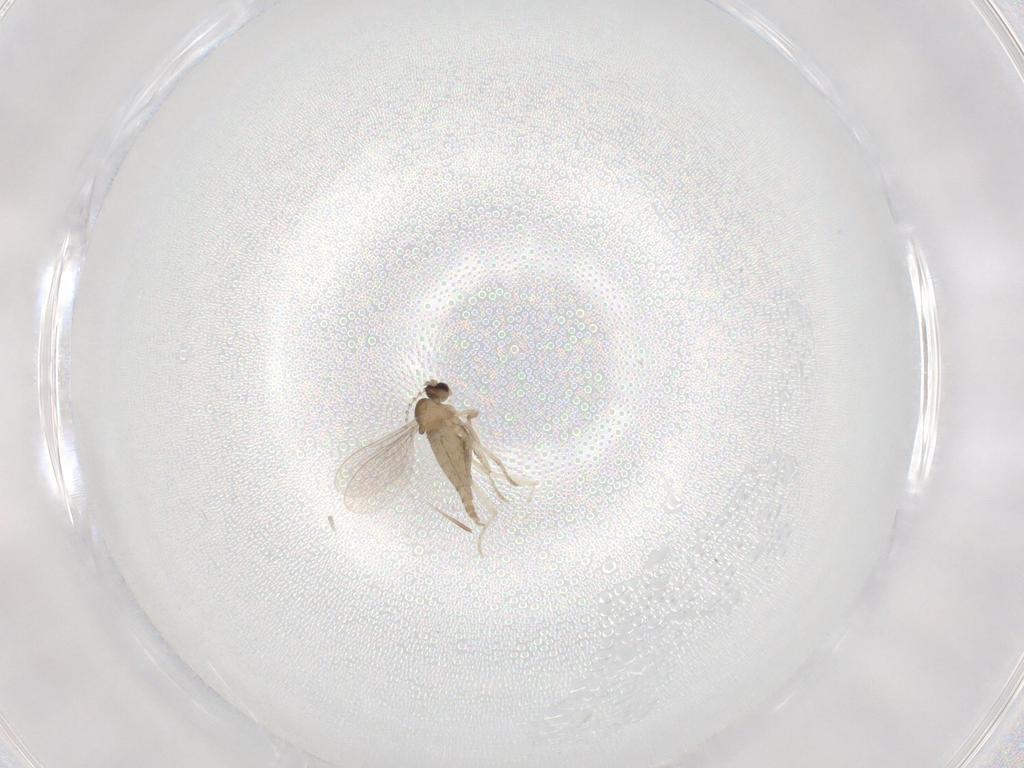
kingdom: Animalia
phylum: Arthropoda
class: Insecta
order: Diptera
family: Cecidomyiidae
